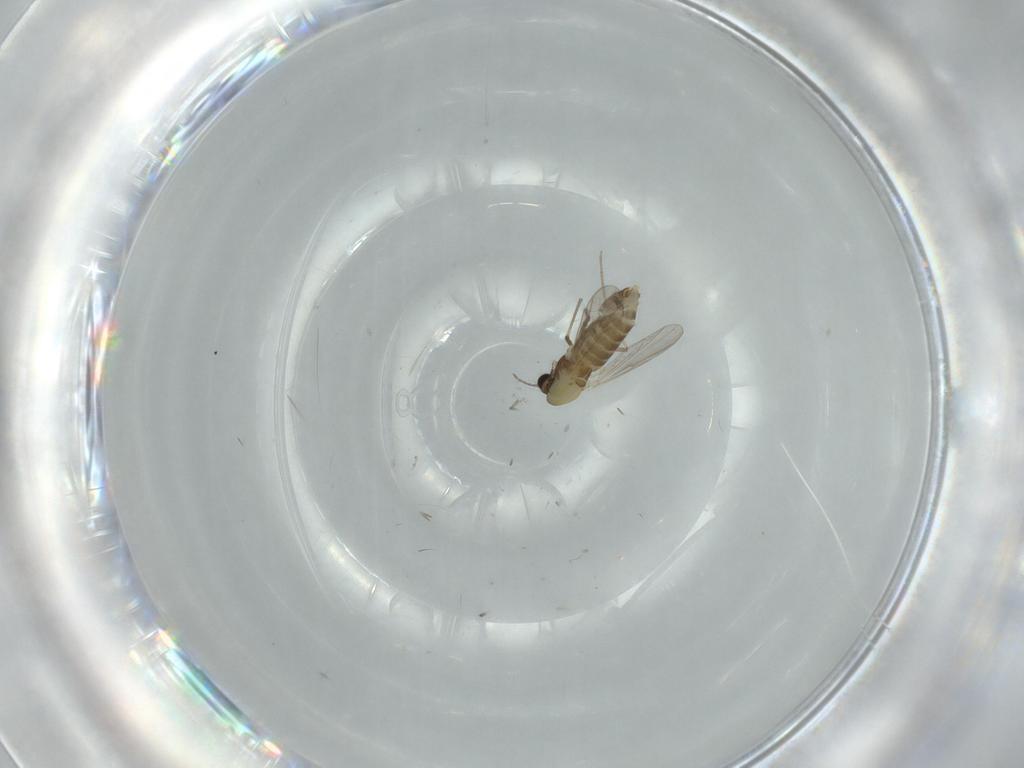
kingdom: Animalia
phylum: Arthropoda
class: Insecta
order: Diptera
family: Chironomidae
